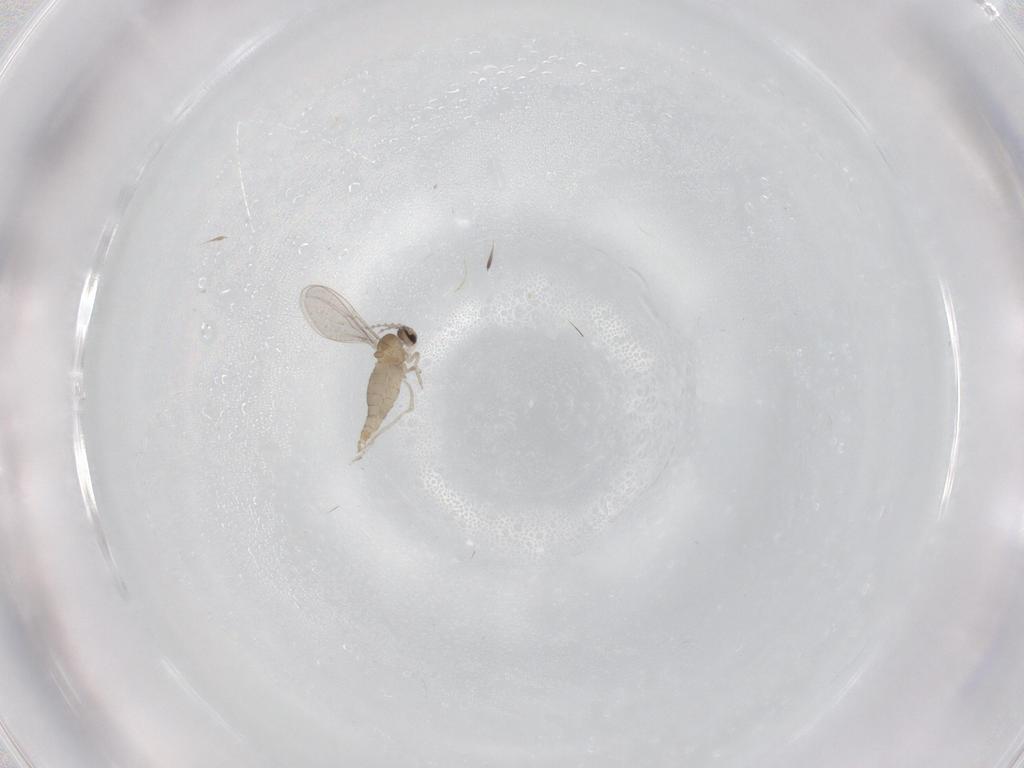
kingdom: Animalia
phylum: Arthropoda
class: Insecta
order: Diptera
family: Cecidomyiidae
